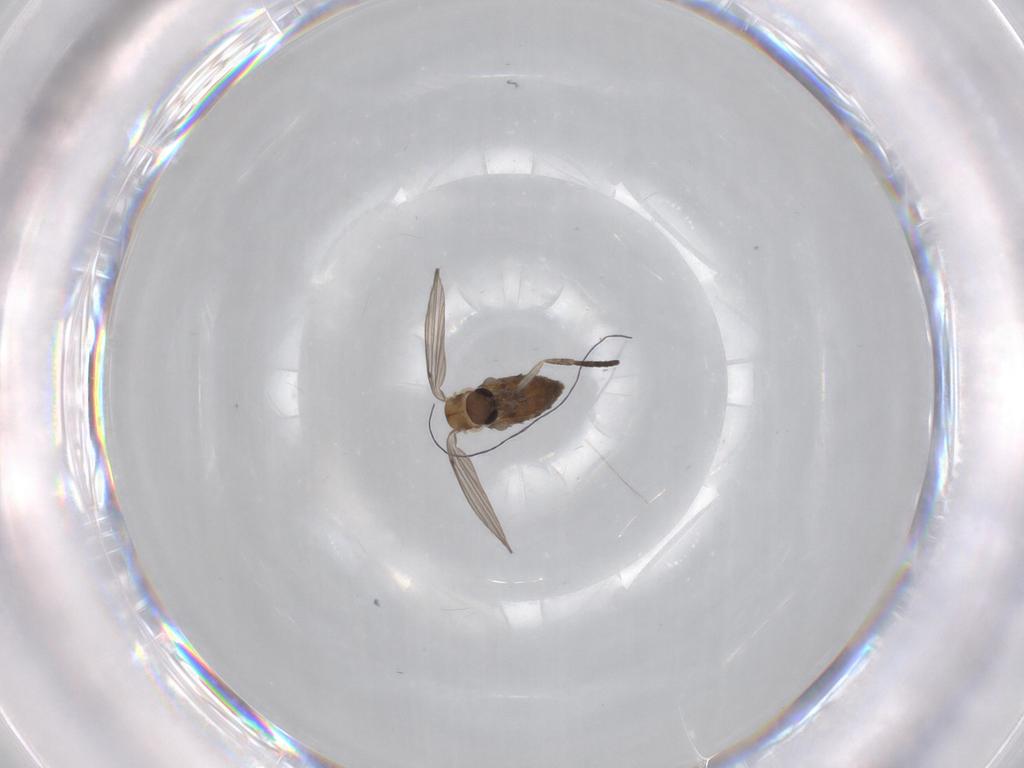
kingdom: Animalia
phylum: Arthropoda
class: Insecta
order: Diptera
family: Psychodidae
